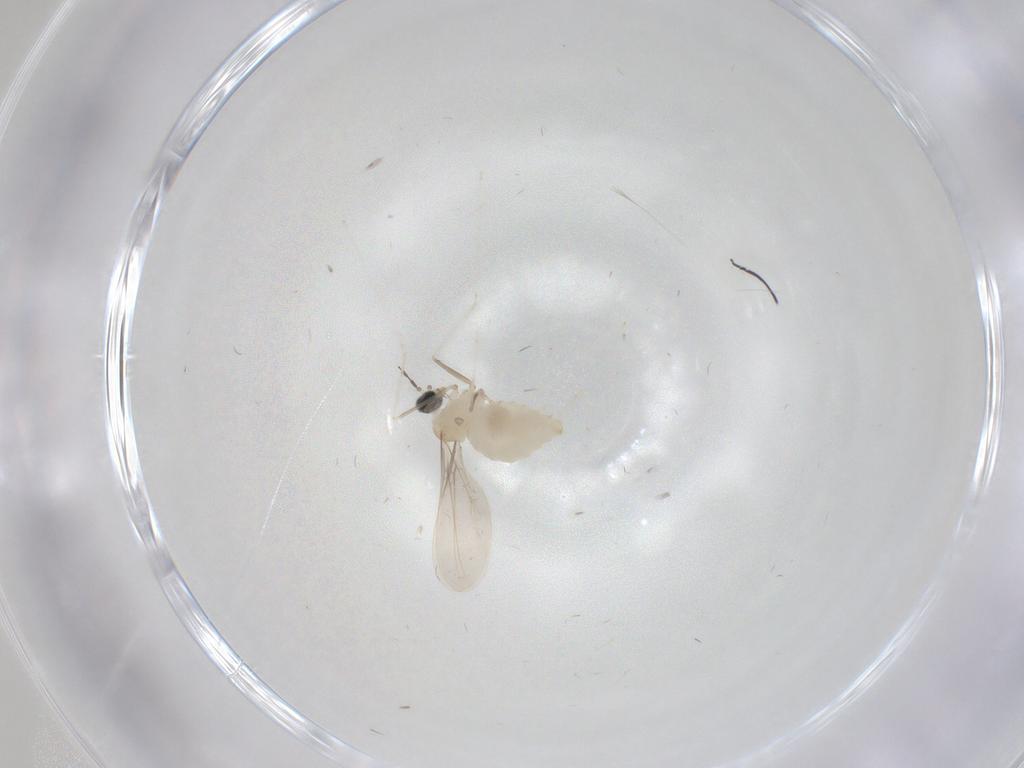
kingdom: Animalia
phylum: Arthropoda
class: Insecta
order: Diptera
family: Cecidomyiidae
